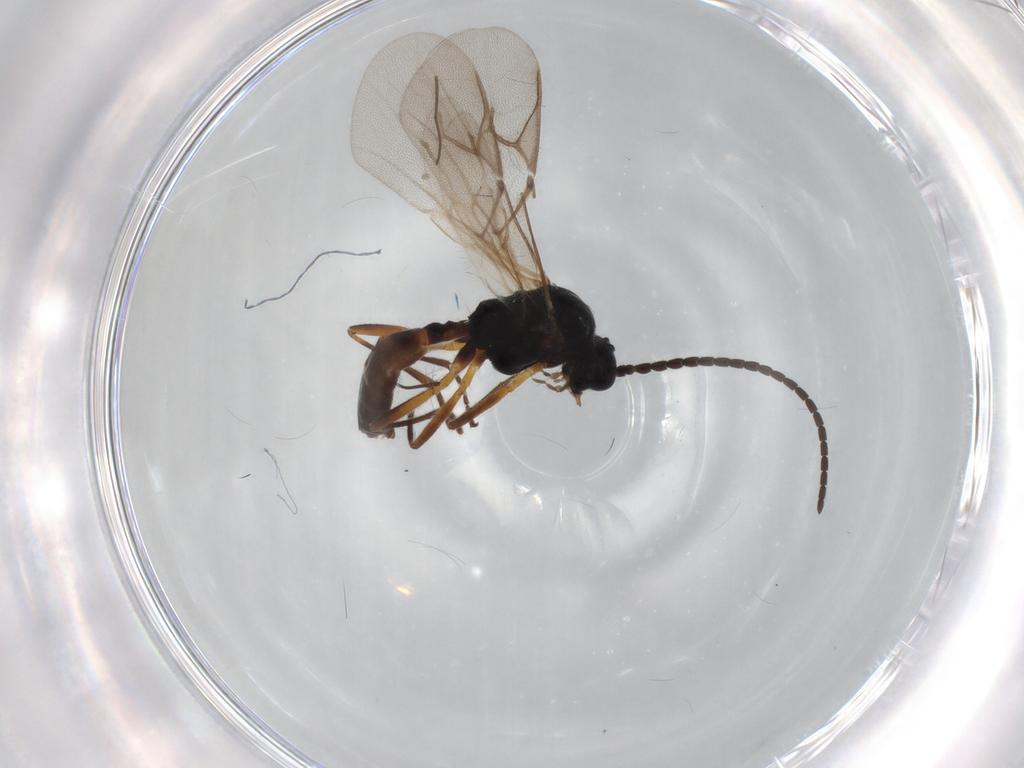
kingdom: Animalia
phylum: Arthropoda
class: Insecta
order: Hymenoptera
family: Braconidae
